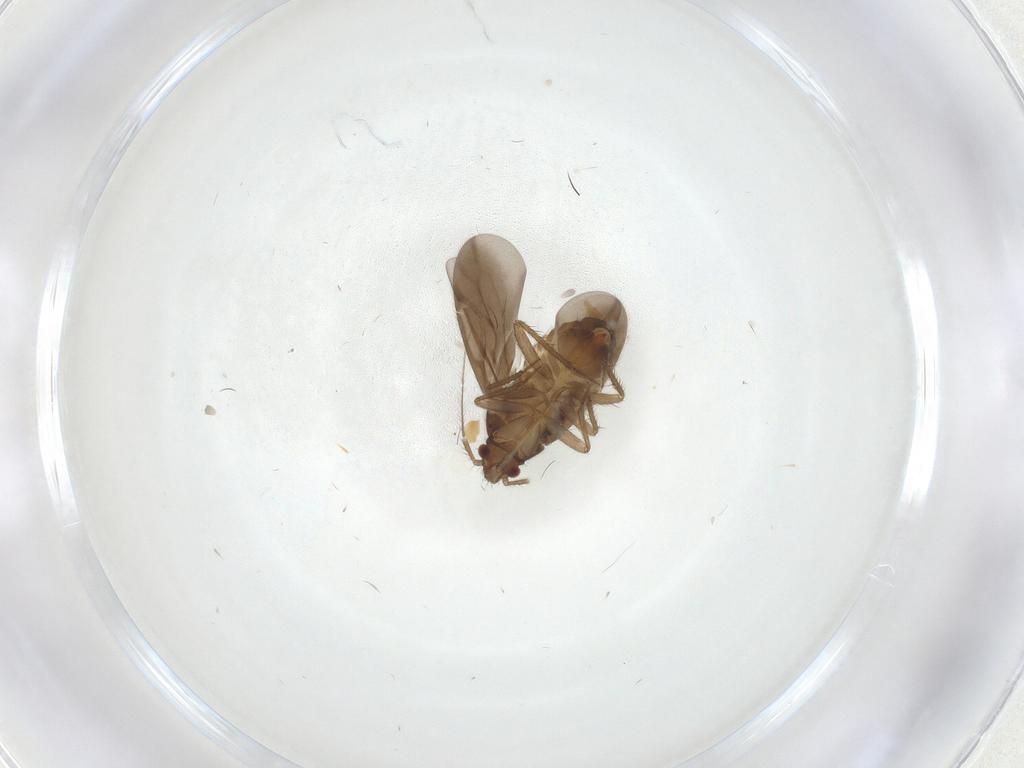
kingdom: Animalia
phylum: Arthropoda
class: Insecta
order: Hemiptera
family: Ceratocombidae
